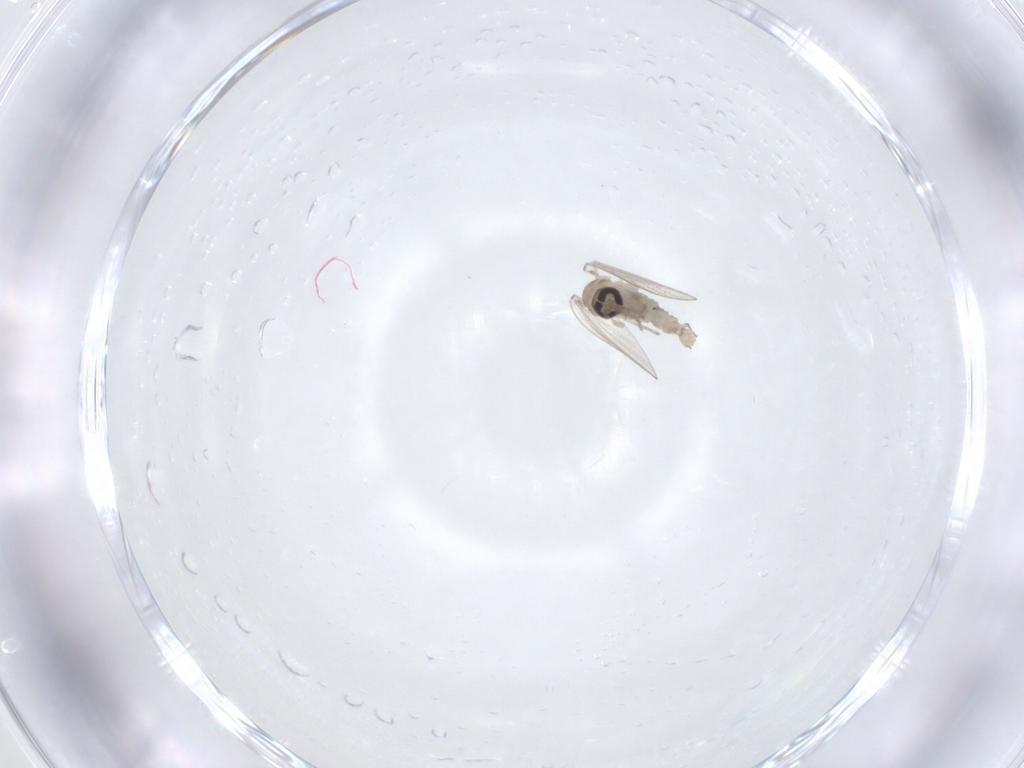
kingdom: Animalia
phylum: Arthropoda
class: Insecta
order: Diptera
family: Psychodidae
